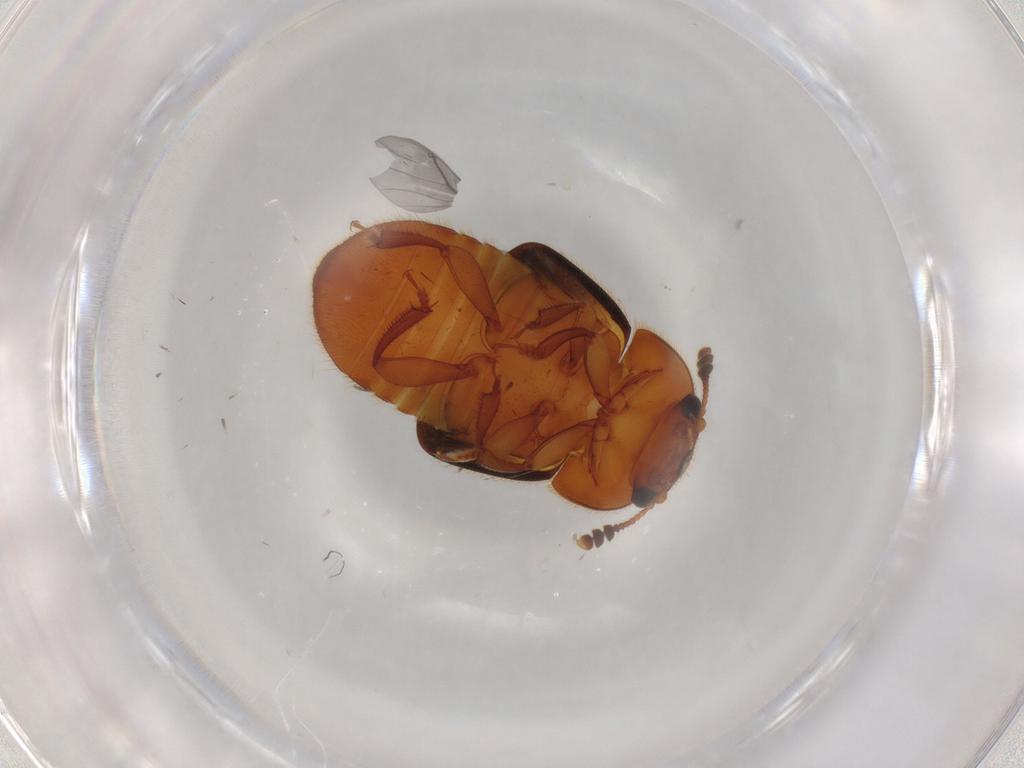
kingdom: Animalia
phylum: Arthropoda
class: Insecta
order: Coleoptera
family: Nitidulidae
